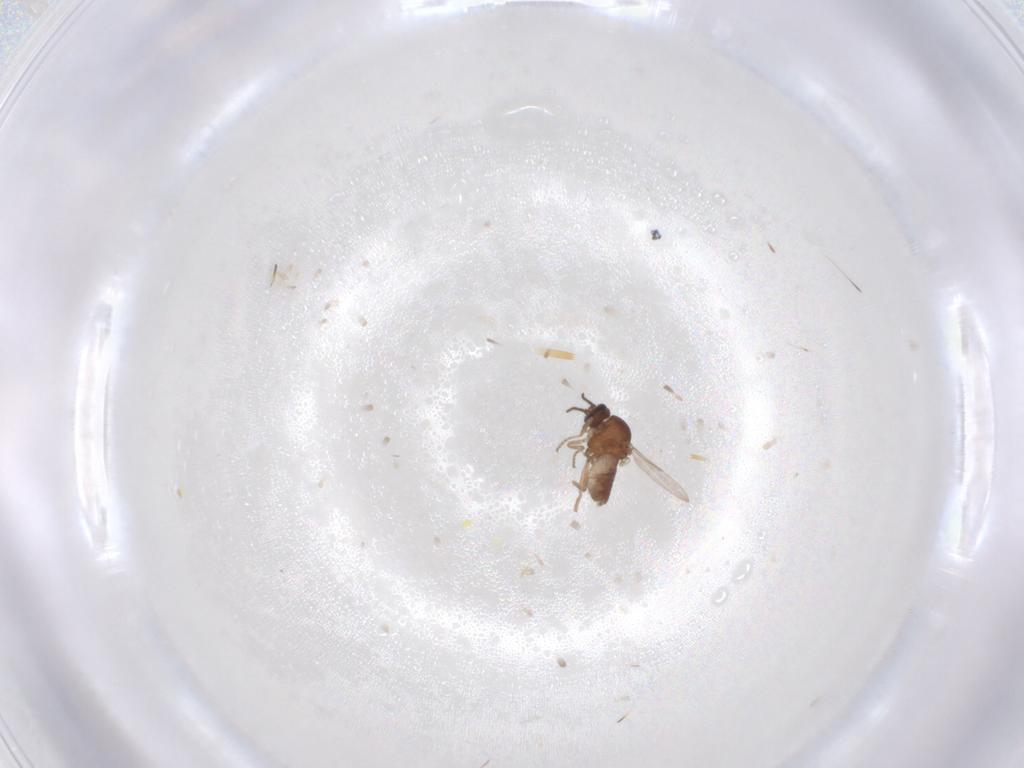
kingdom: Animalia
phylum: Arthropoda
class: Insecta
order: Diptera
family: Ceratopogonidae
